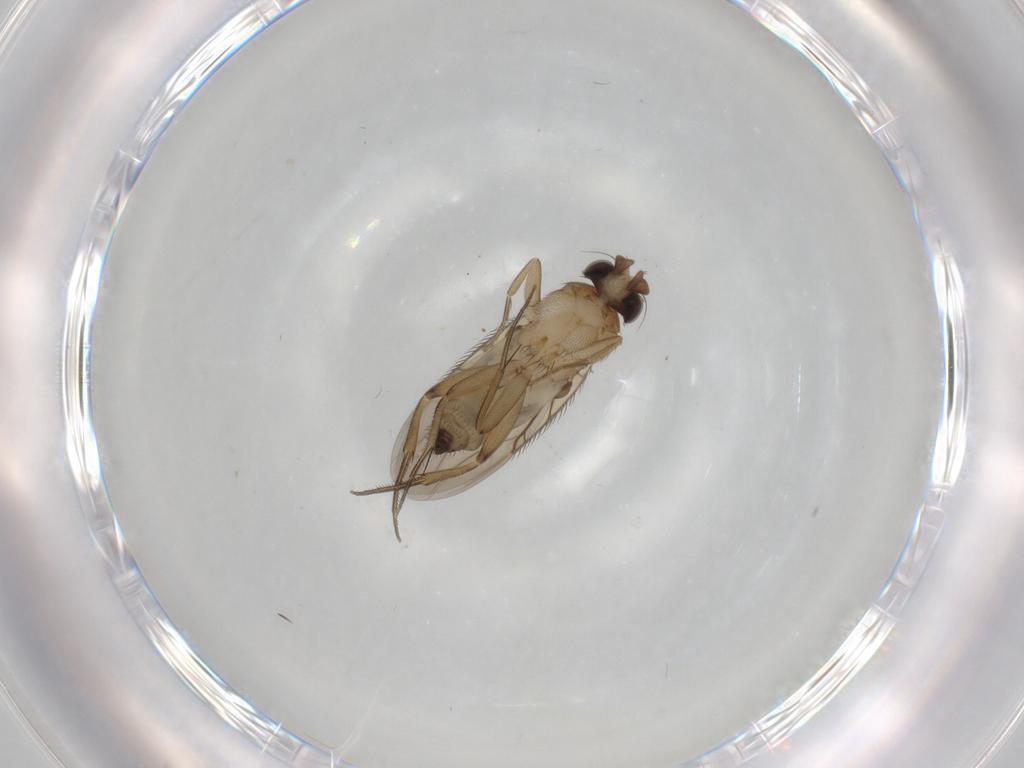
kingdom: Animalia
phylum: Arthropoda
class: Insecta
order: Diptera
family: Phoridae
